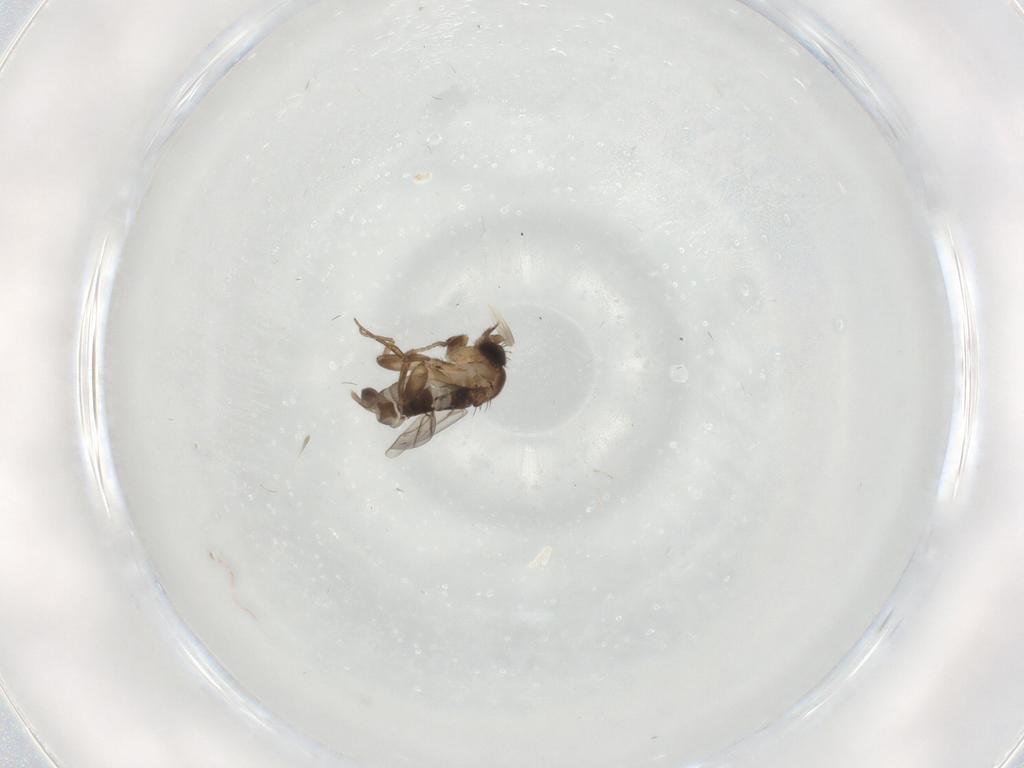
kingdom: Animalia
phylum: Arthropoda
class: Insecta
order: Diptera
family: Phoridae
